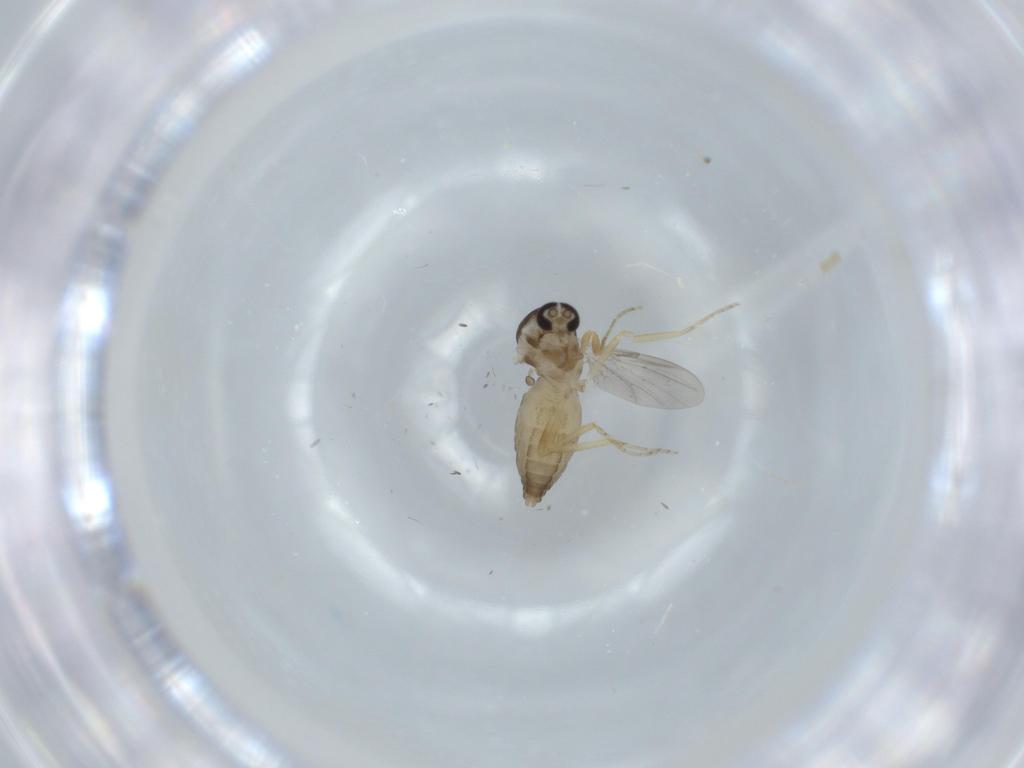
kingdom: Animalia
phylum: Arthropoda
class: Insecta
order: Diptera
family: Ceratopogonidae
